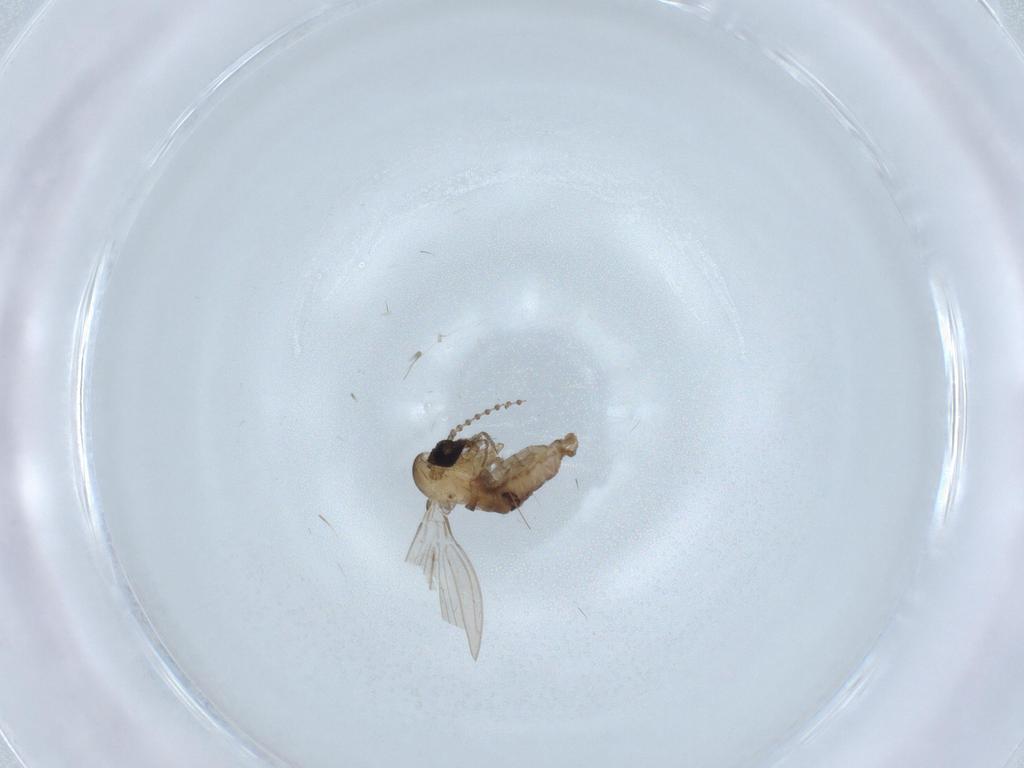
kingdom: Animalia
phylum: Arthropoda
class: Insecta
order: Diptera
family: Psychodidae
